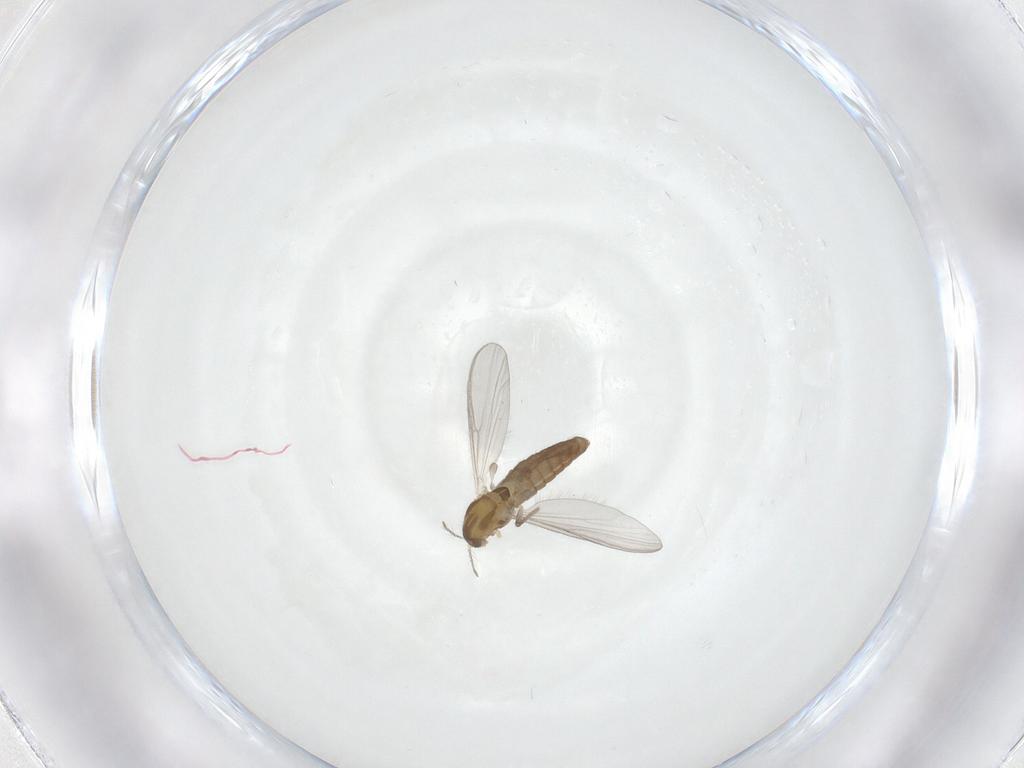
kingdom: Animalia
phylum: Arthropoda
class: Insecta
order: Diptera
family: Chironomidae
